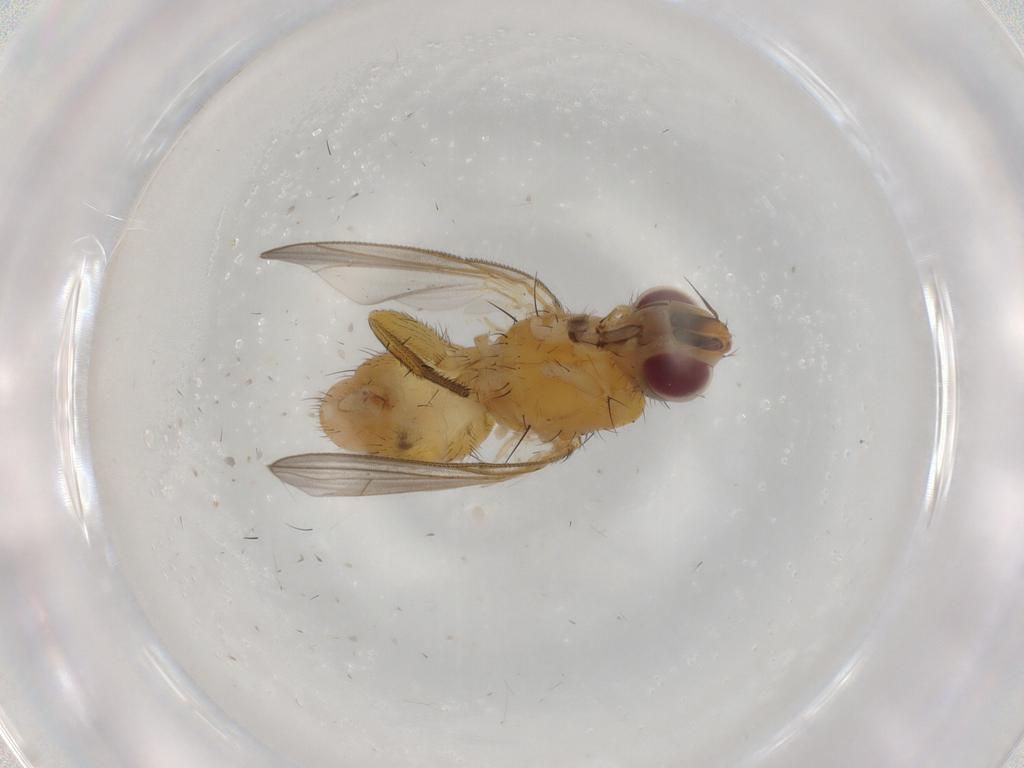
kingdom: Animalia
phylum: Arthropoda
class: Insecta
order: Diptera
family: Muscidae
